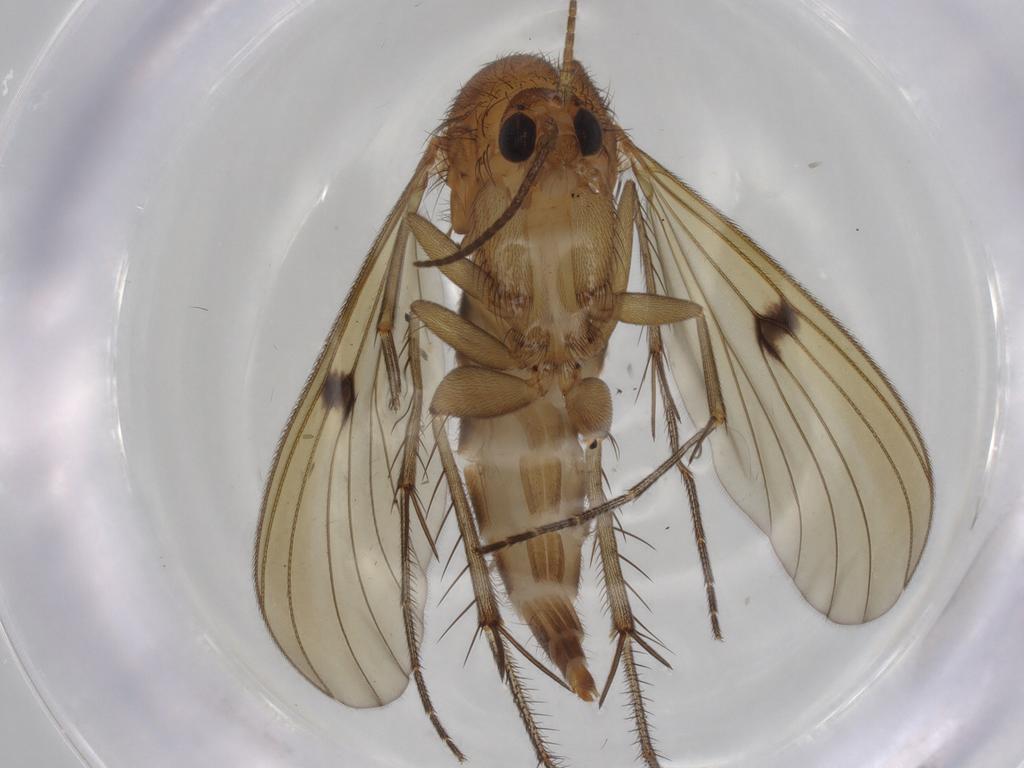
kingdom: Animalia
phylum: Arthropoda
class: Insecta
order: Diptera
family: Sciaridae
